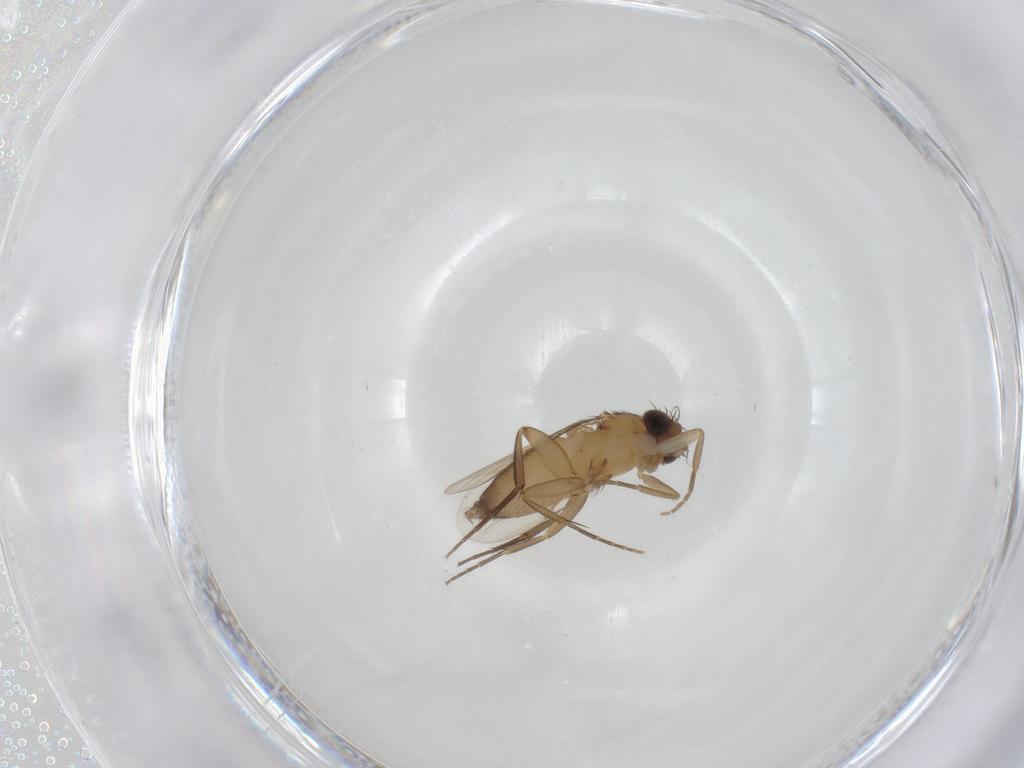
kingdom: Animalia
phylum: Arthropoda
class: Insecta
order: Diptera
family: Phoridae
